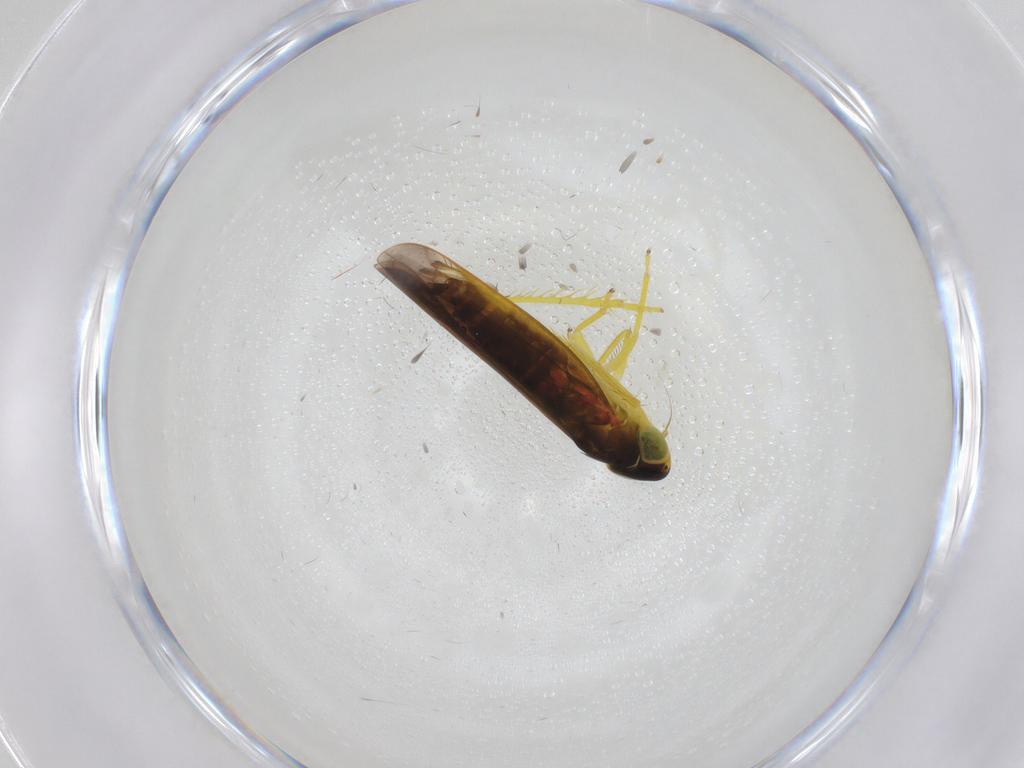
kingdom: Animalia
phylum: Arthropoda
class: Insecta
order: Hemiptera
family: Cicadellidae
